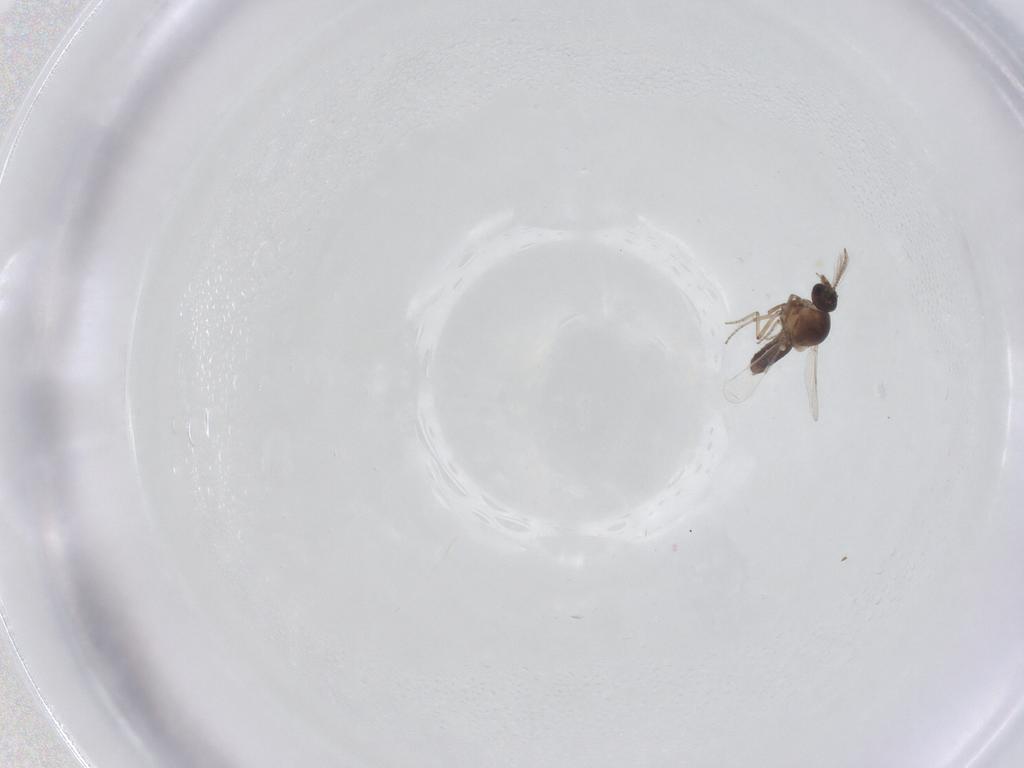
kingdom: Animalia
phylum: Arthropoda
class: Insecta
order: Diptera
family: Ceratopogonidae
